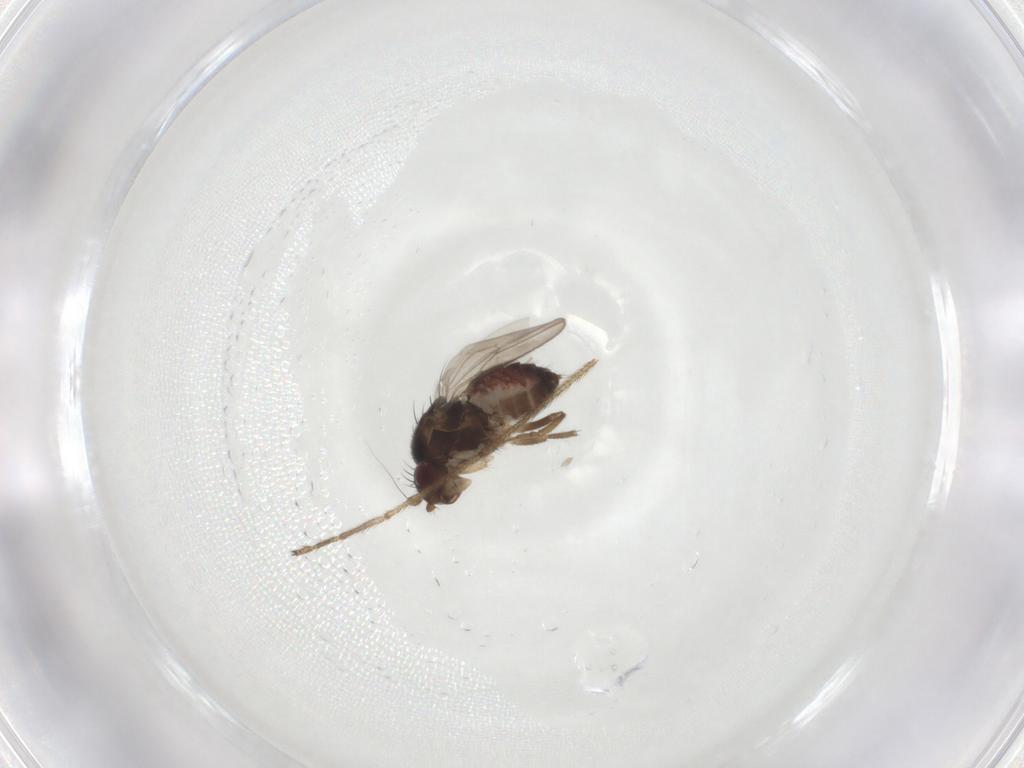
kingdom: Animalia
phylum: Arthropoda
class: Insecta
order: Diptera
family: Limoniidae
